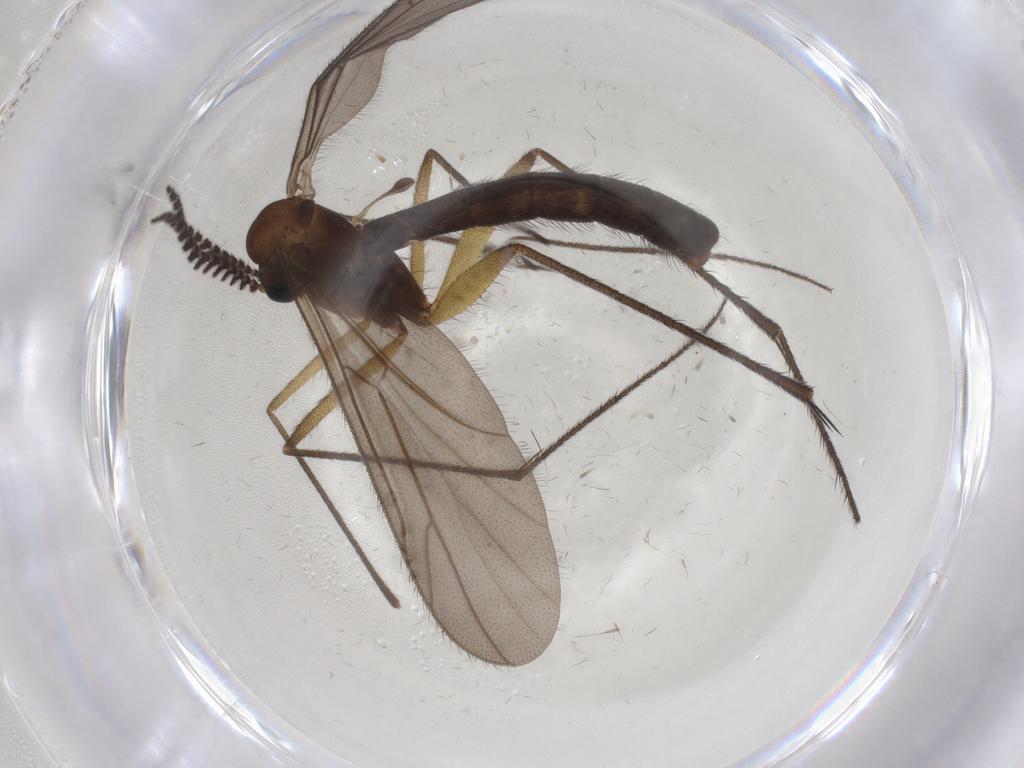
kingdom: Animalia
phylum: Arthropoda
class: Insecta
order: Diptera
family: Ditomyiidae
